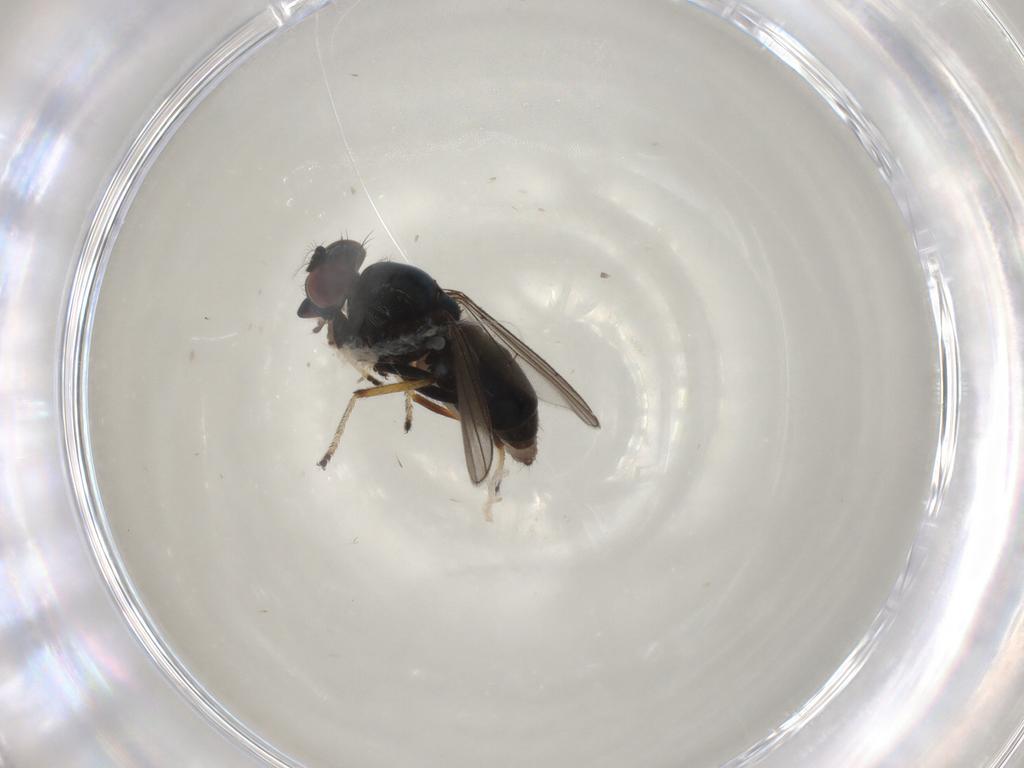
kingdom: Animalia
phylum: Arthropoda
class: Insecta
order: Diptera
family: Ephydridae
